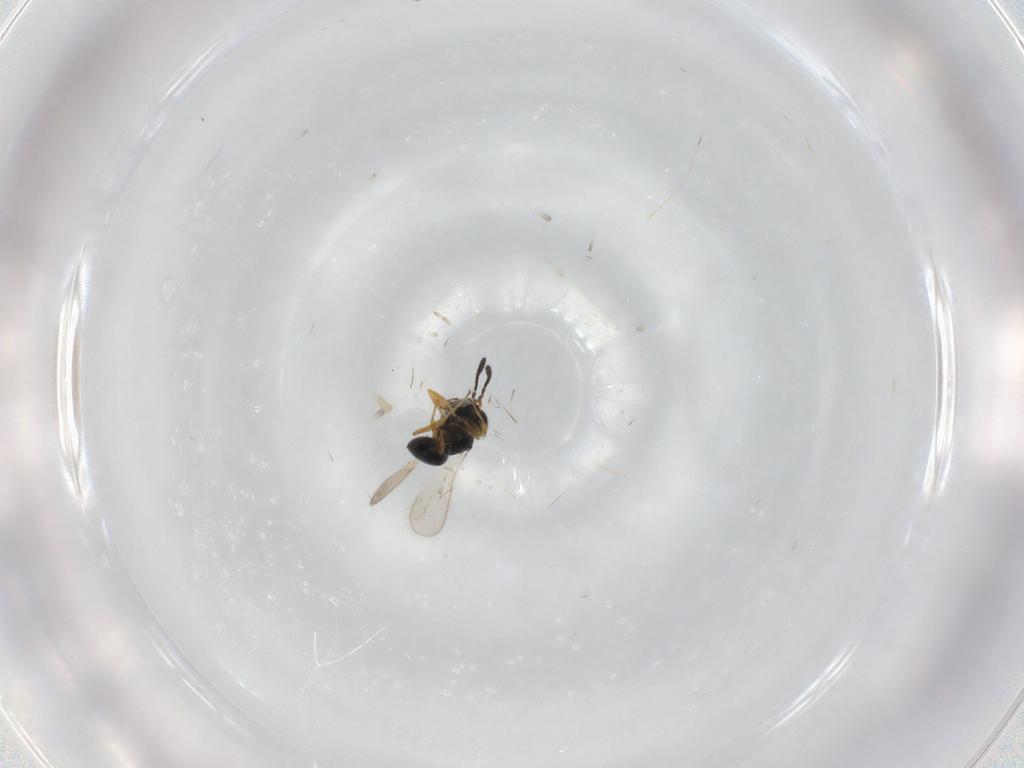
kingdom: Animalia
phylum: Arthropoda
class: Insecta
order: Hymenoptera
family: Scelionidae
